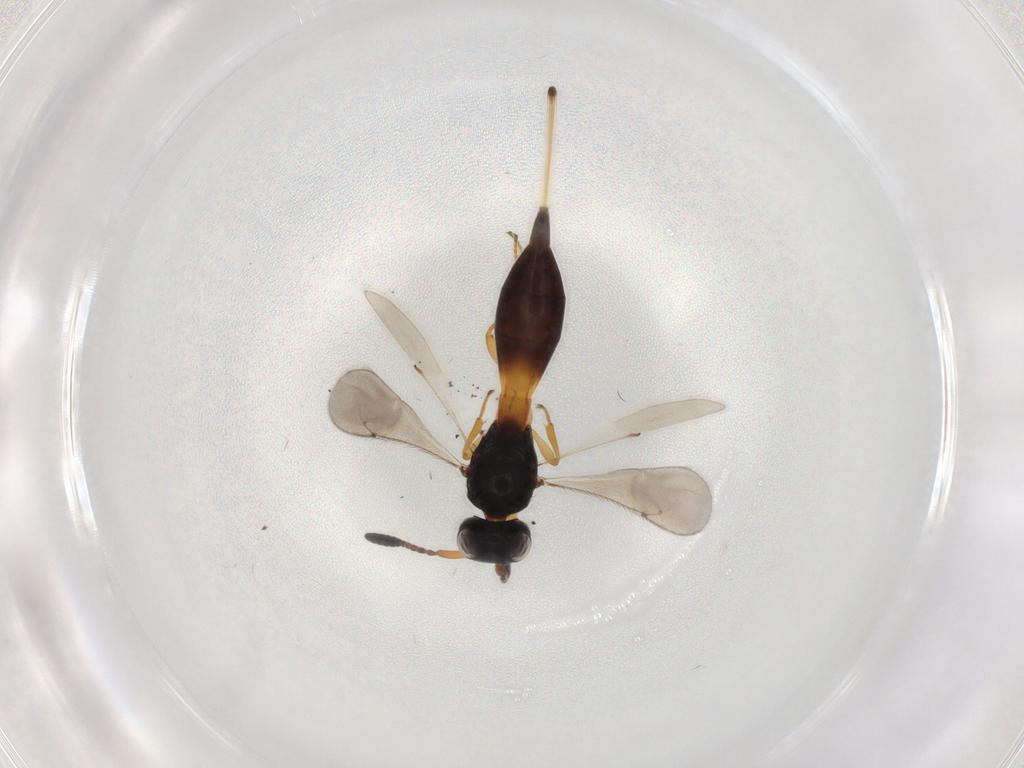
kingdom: Animalia
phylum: Arthropoda
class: Insecta
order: Hymenoptera
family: Scelionidae
